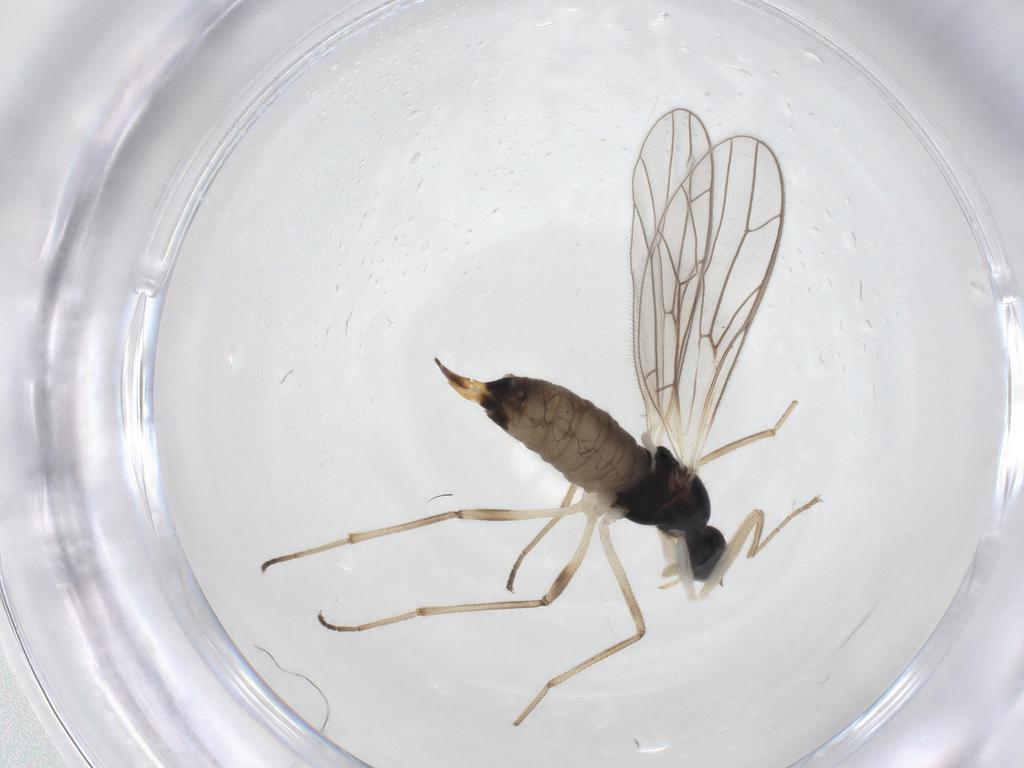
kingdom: Animalia
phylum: Arthropoda
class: Insecta
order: Diptera
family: Empididae
